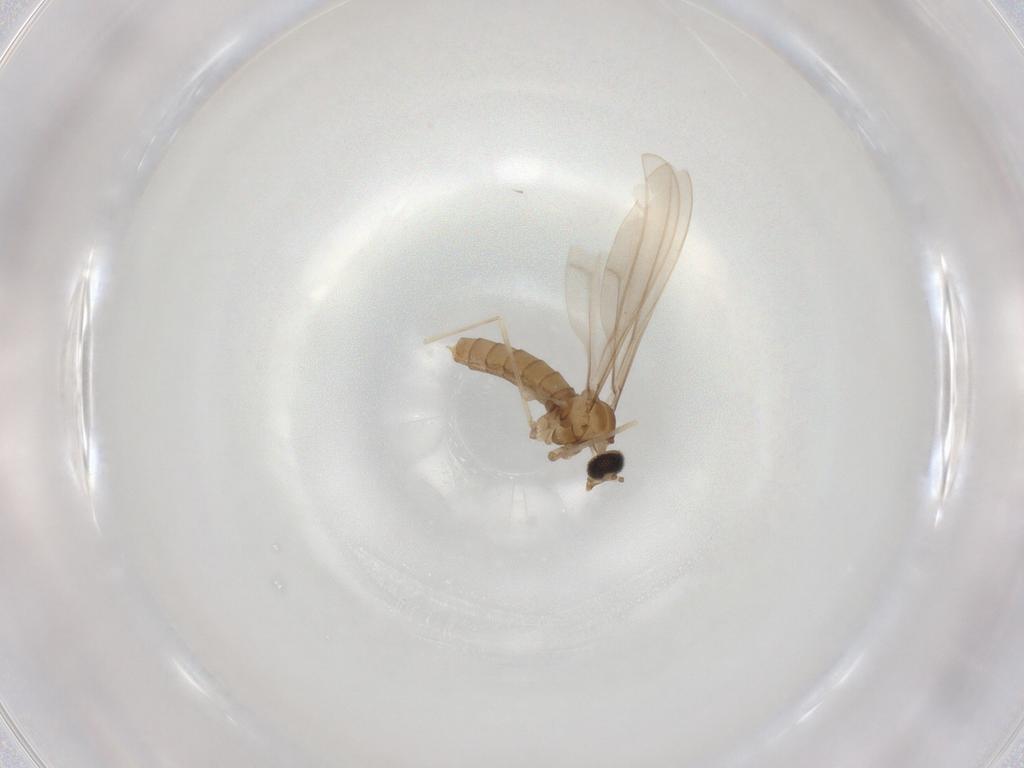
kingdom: Animalia
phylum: Arthropoda
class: Insecta
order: Diptera
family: Cecidomyiidae
